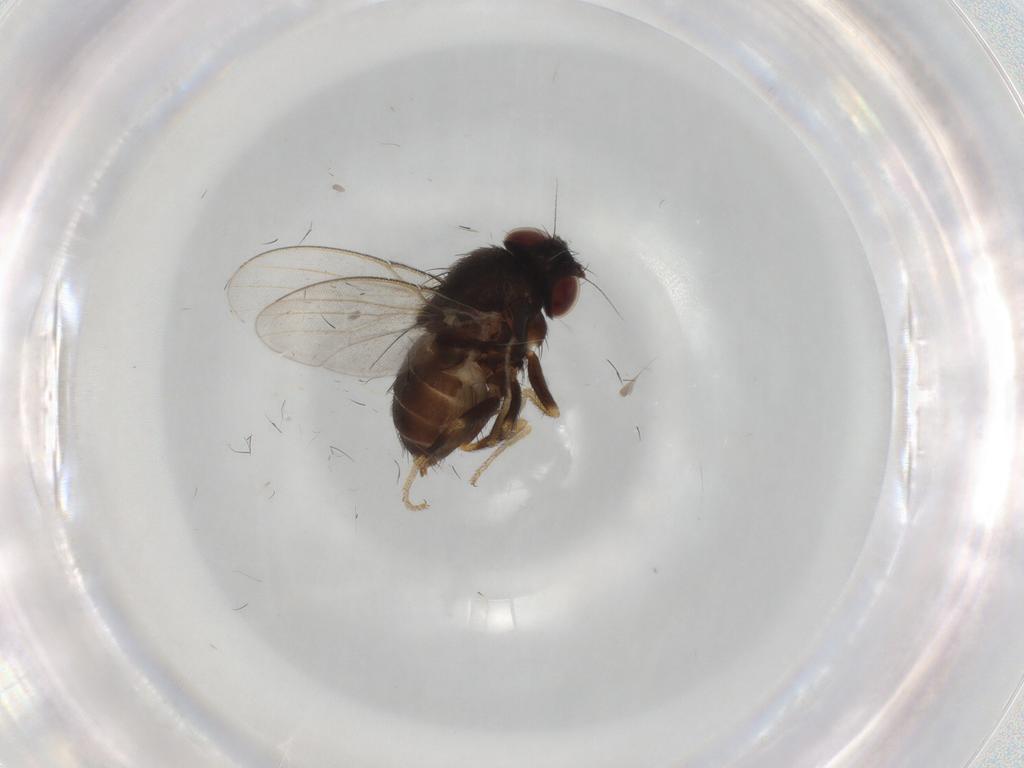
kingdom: Animalia
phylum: Arthropoda
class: Insecta
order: Diptera
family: Milichiidae
